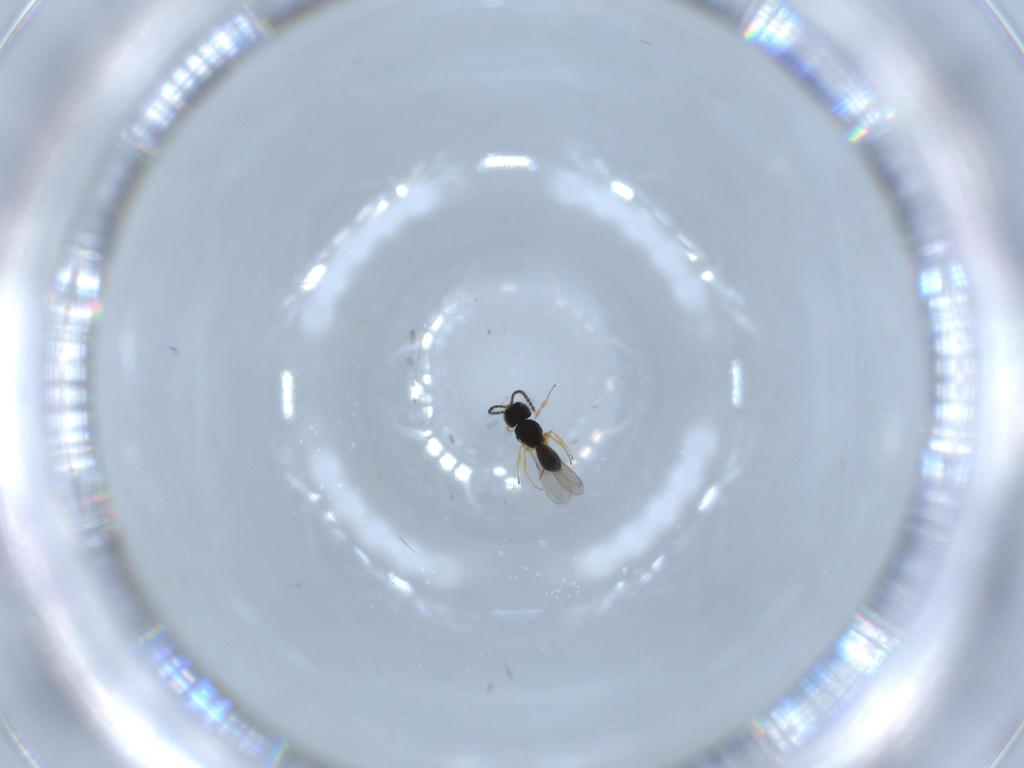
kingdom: Animalia
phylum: Arthropoda
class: Insecta
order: Hymenoptera
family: Scelionidae
